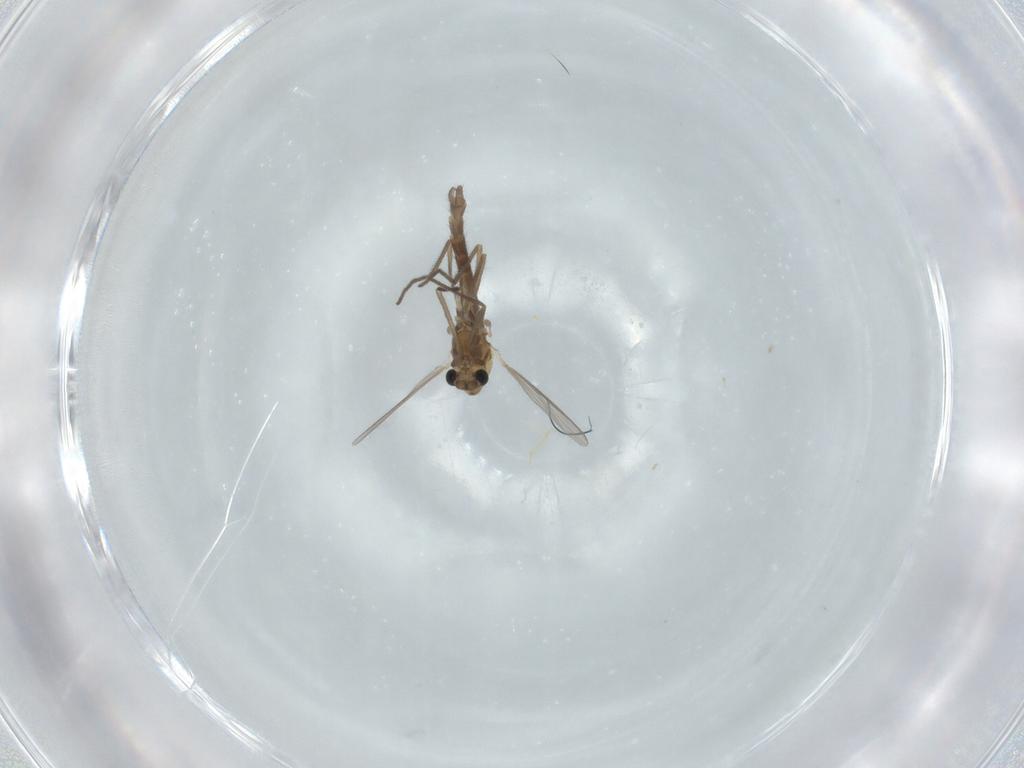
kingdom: Animalia
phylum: Arthropoda
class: Insecta
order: Diptera
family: Chironomidae
